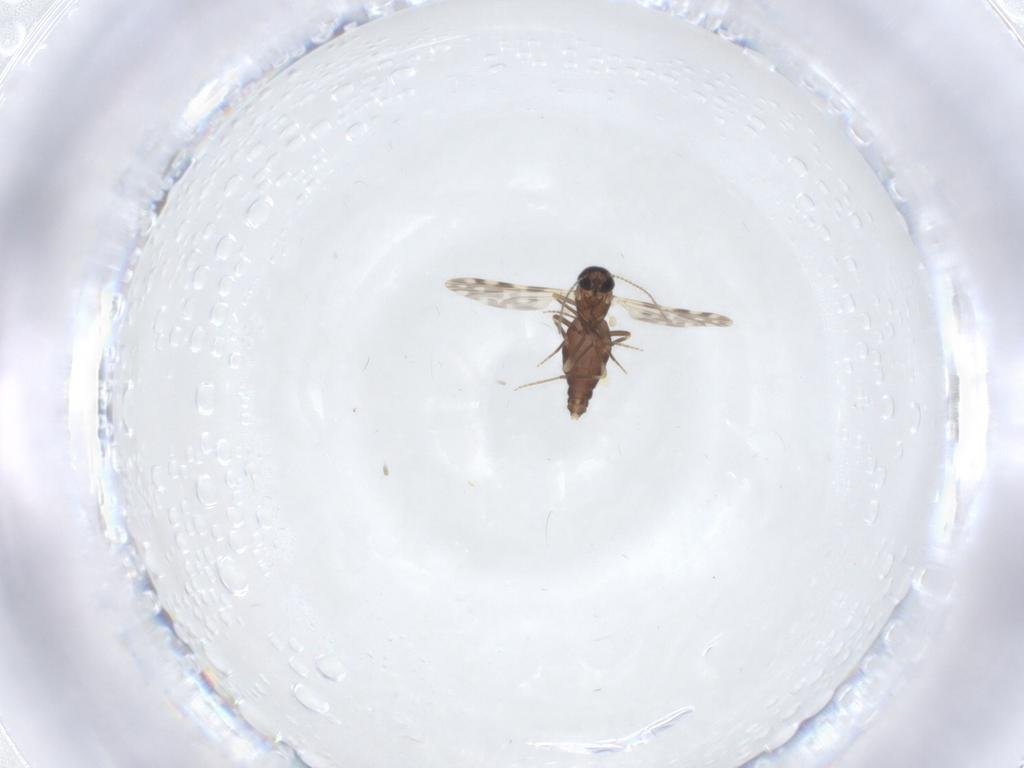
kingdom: Animalia
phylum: Arthropoda
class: Insecta
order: Diptera
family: Ceratopogonidae
